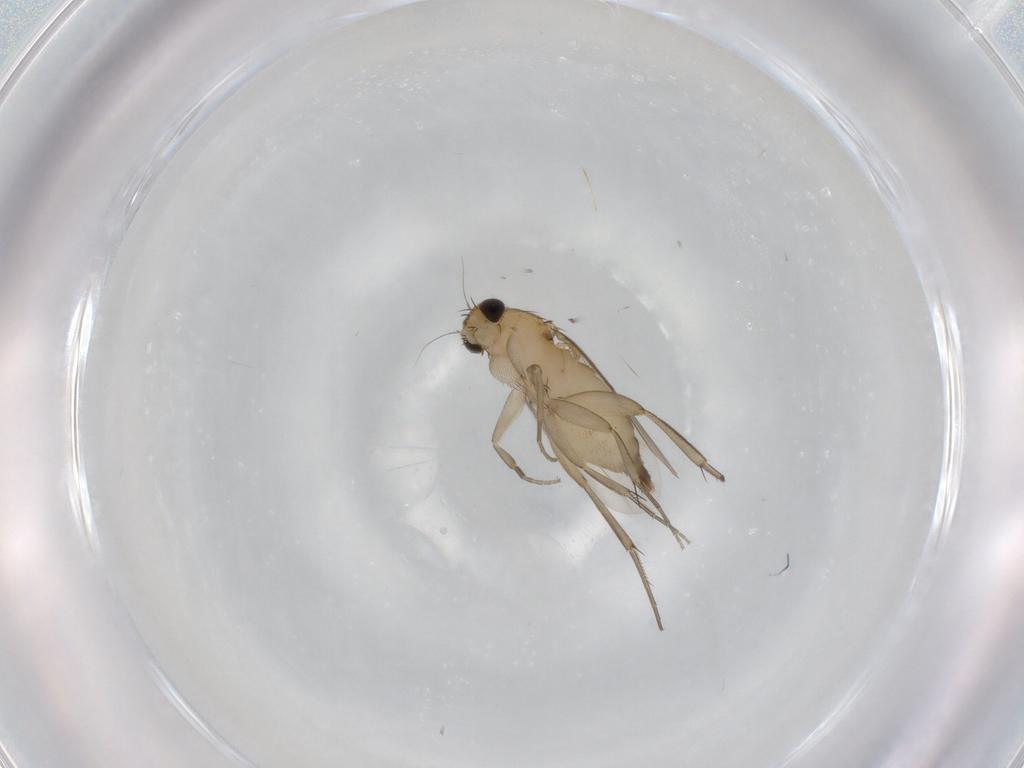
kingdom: Animalia
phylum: Arthropoda
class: Insecta
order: Diptera
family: Phoridae
